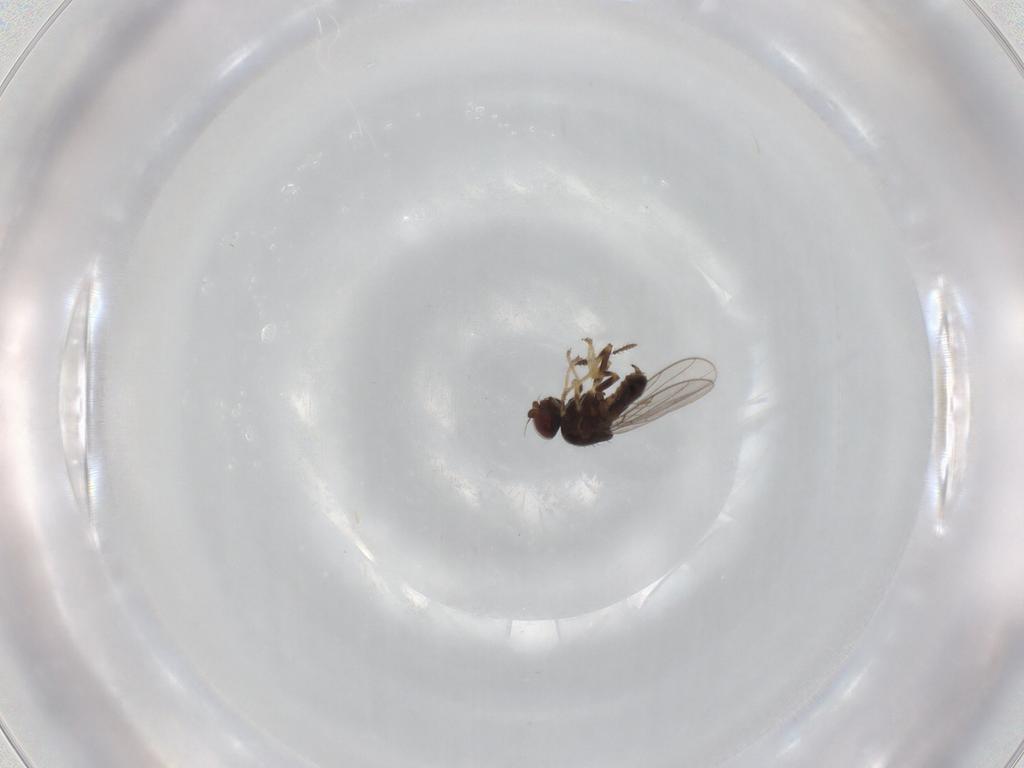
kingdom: Animalia
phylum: Arthropoda
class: Insecta
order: Diptera
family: Chloropidae
